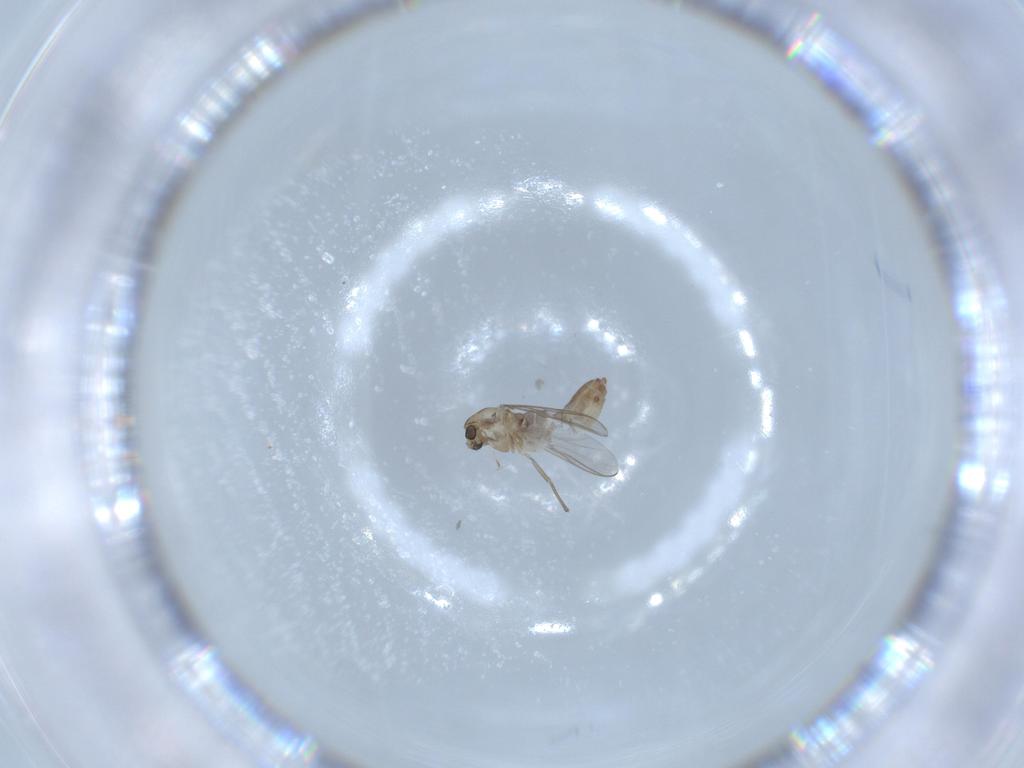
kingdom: Animalia
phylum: Arthropoda
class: Insecta
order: Diptera
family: Chironomidae
